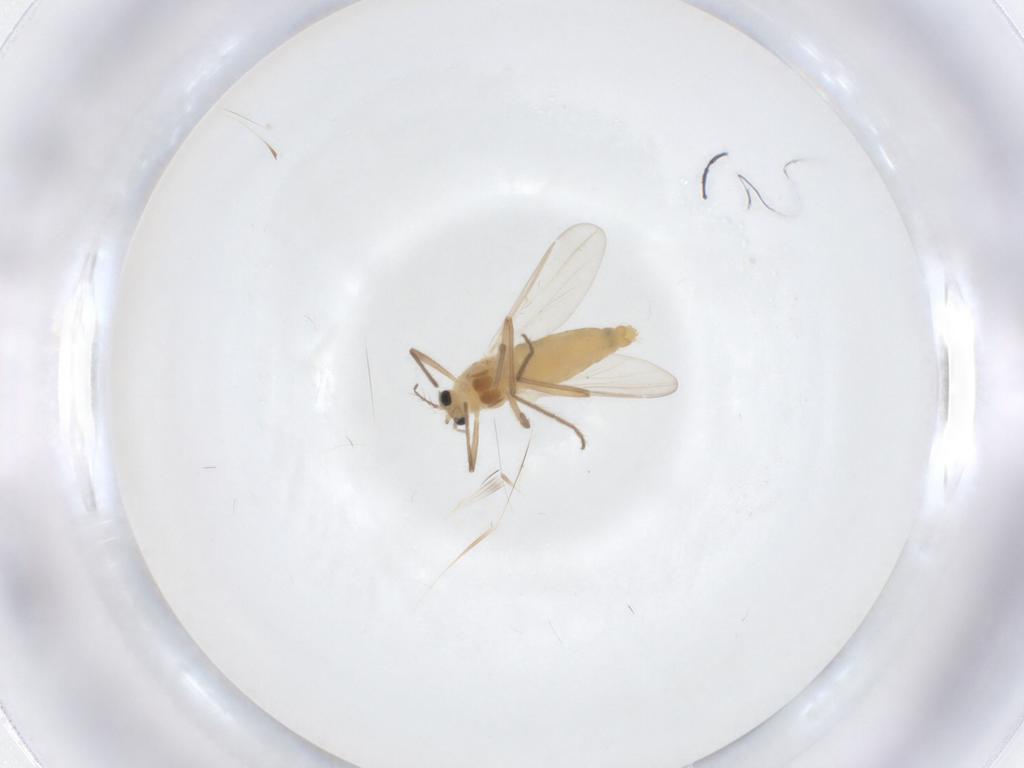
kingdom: Animalia
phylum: Arthropoda
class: Insecta
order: Diptera
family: Chironomidae
